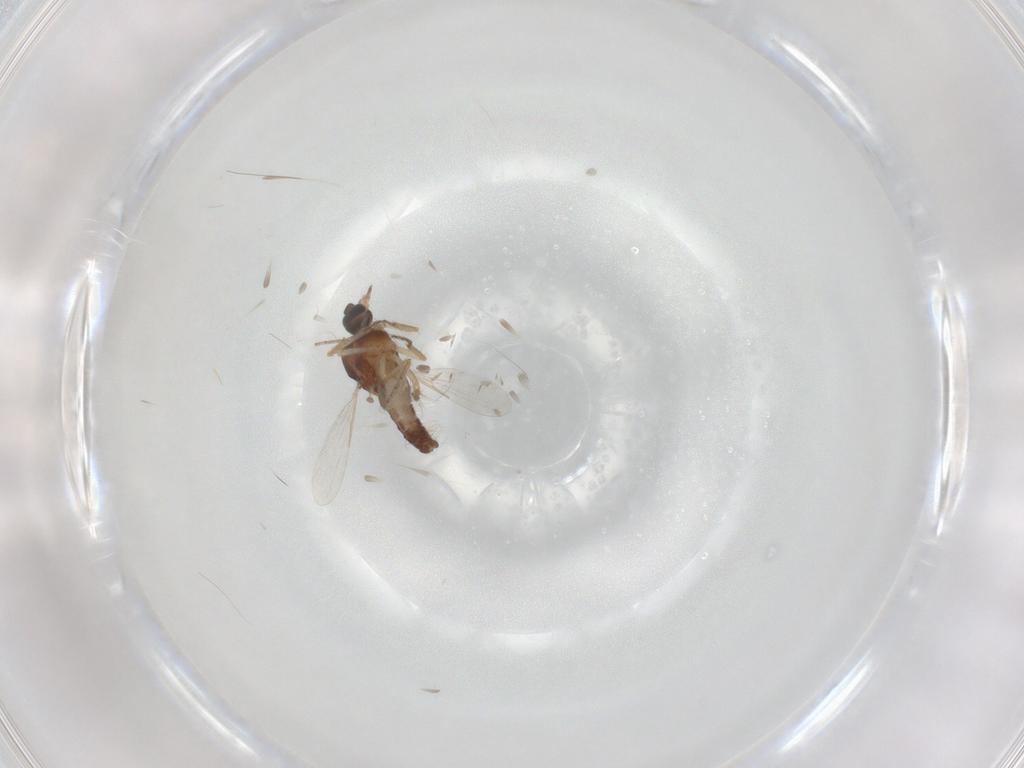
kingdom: Animalia
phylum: Arthropoda
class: Insecta
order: Diptera
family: Ceratopogonidae
